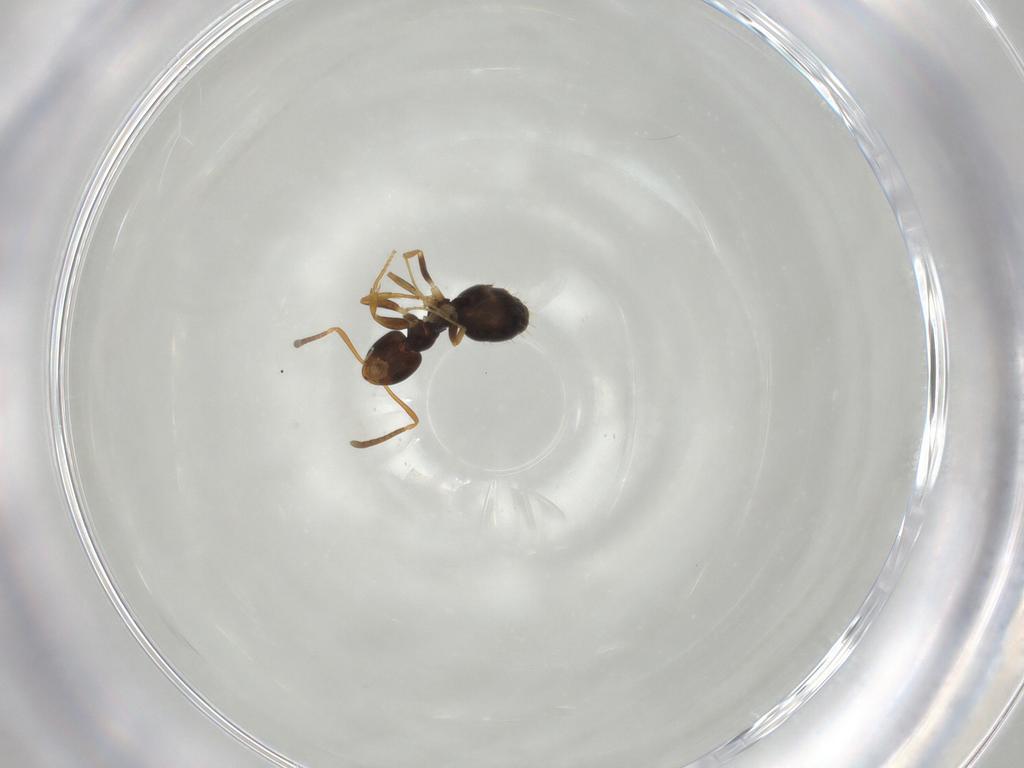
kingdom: Animalia
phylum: Arthropoda
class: Insecta
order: Hymenoptera
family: Formicidae
